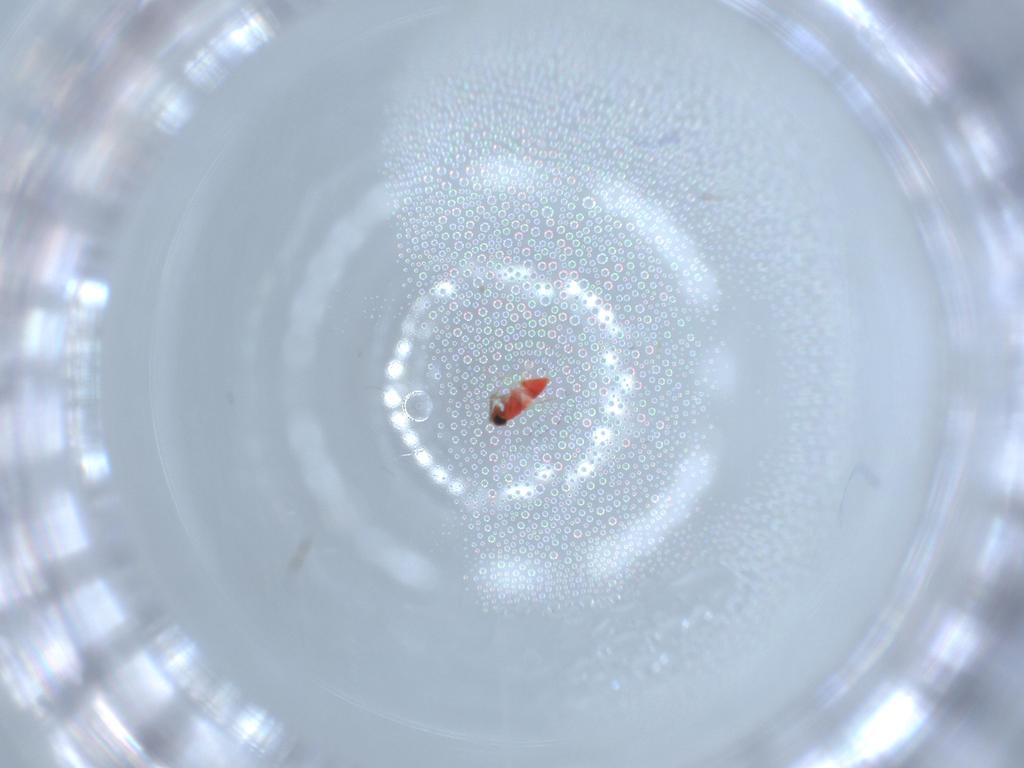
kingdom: Animalia
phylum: Arthropoda
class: Insecta
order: Hymenoptera
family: Trichogrammatidae
